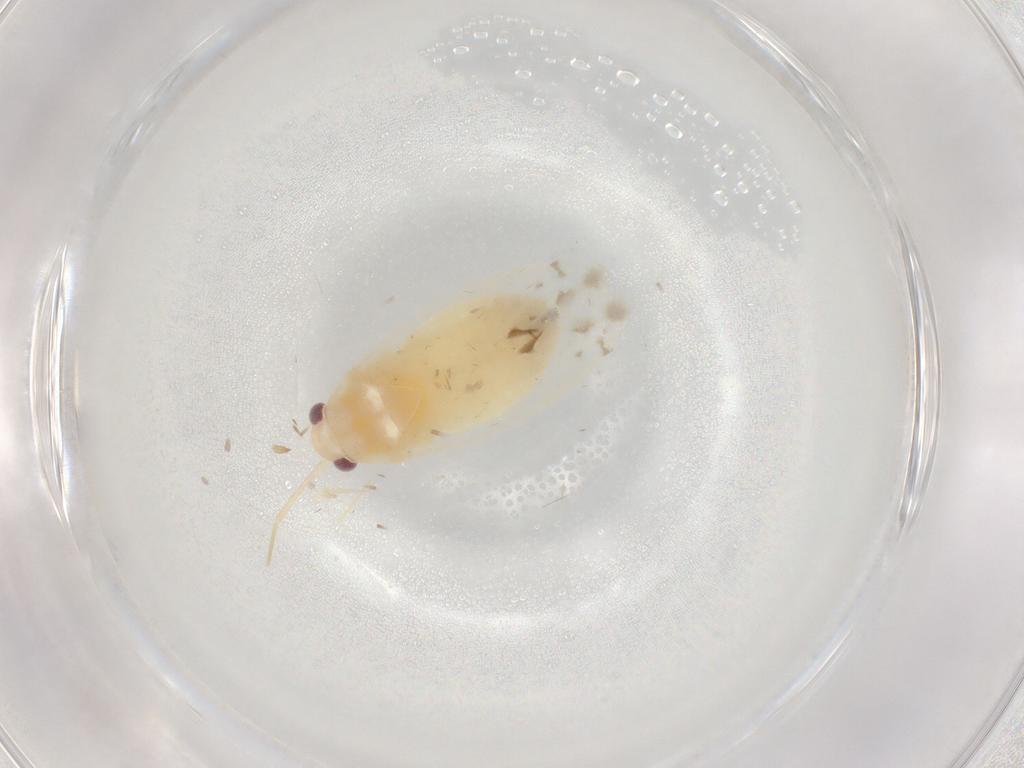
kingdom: Animalia
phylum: Arthropoda
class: Insecta
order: Hemiptera
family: Miridae
